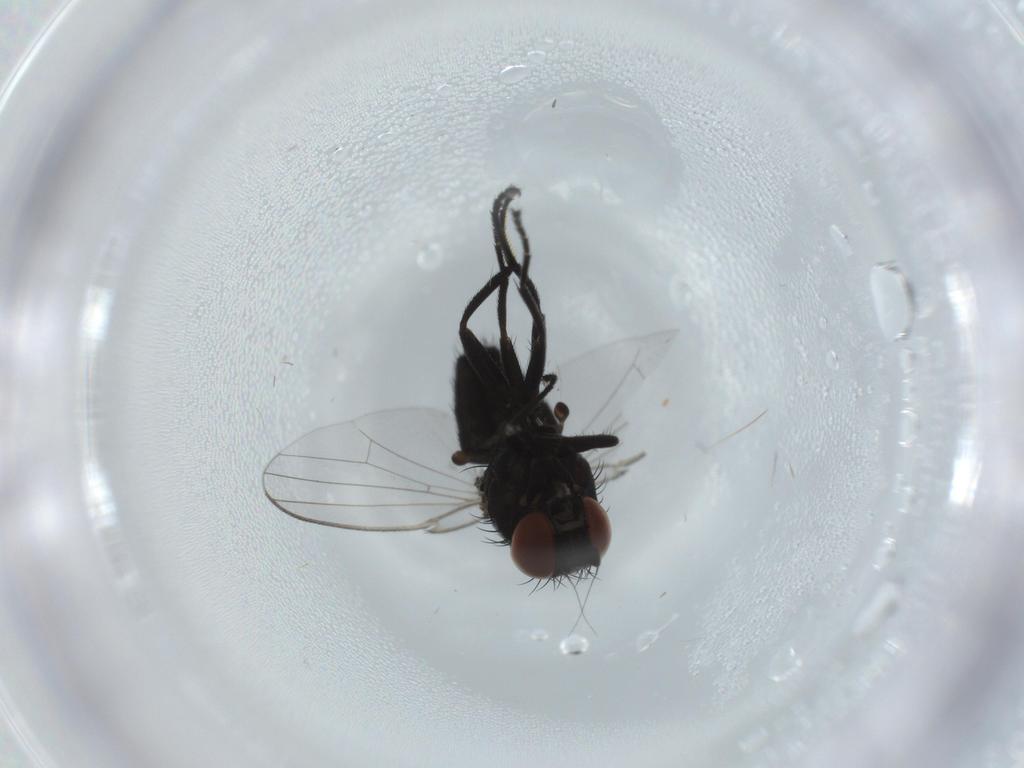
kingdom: Animalia
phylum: Arthropoda
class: Insecta
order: Diptera
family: Milichiidae
